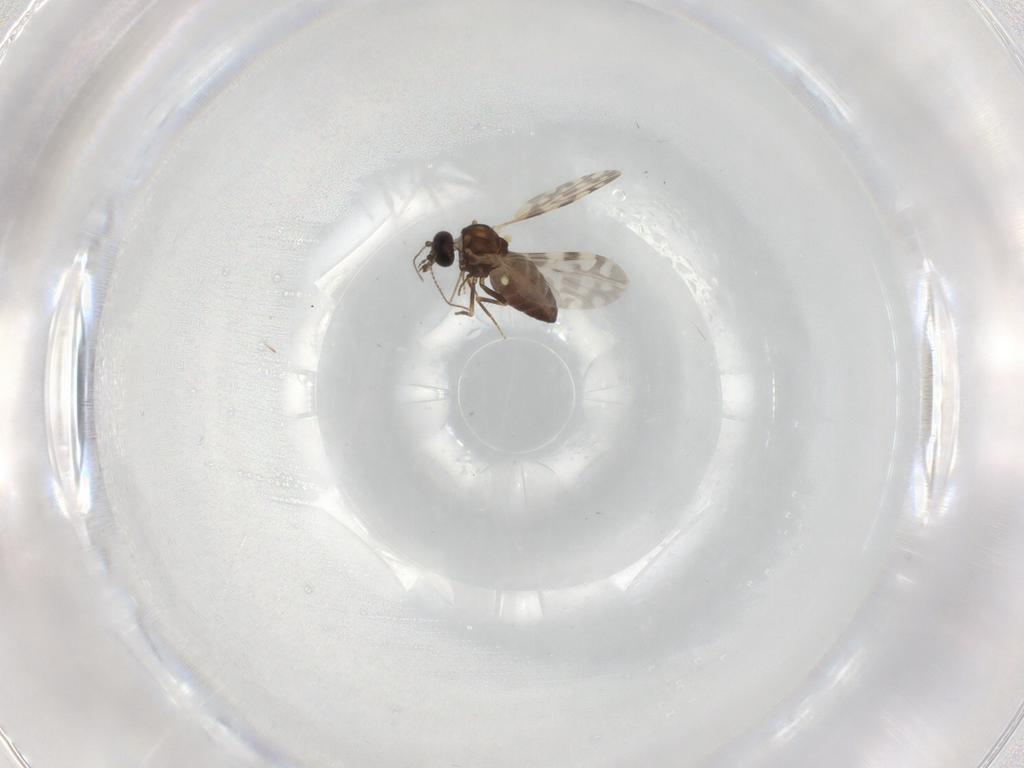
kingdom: Animalia
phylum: Arthropoda
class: Insecta
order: Diptera
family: Ceratopogonidae
